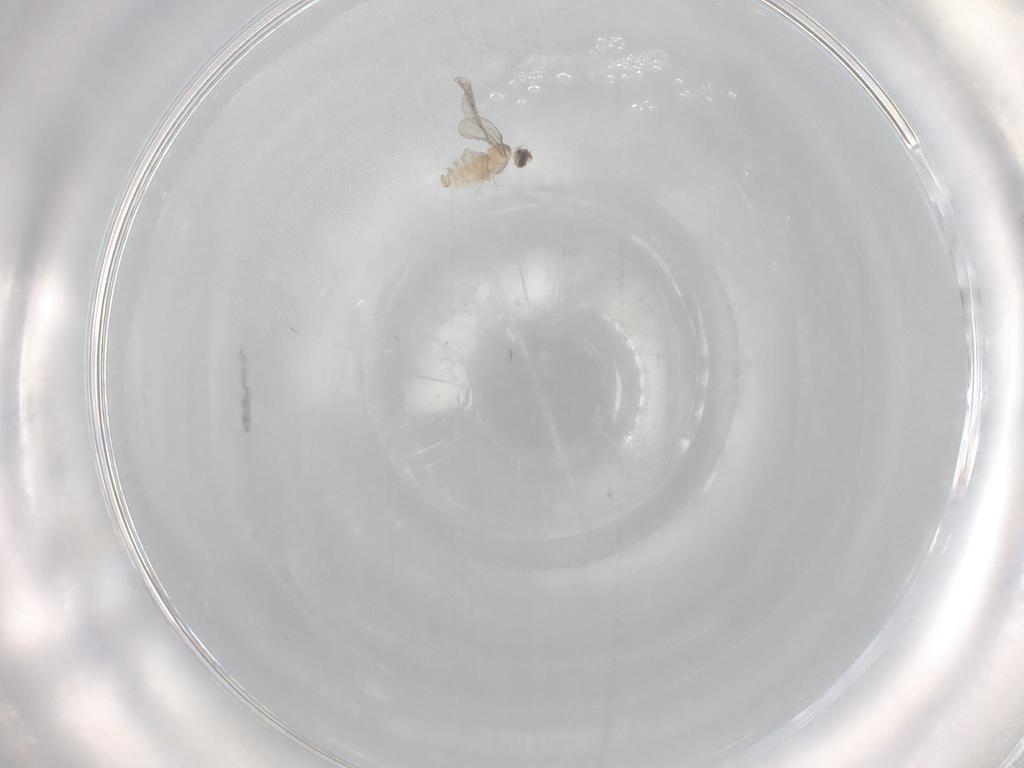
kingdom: Animalia
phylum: Arthropoda
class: Insecta
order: Diptera
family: Cecidomyiidae
